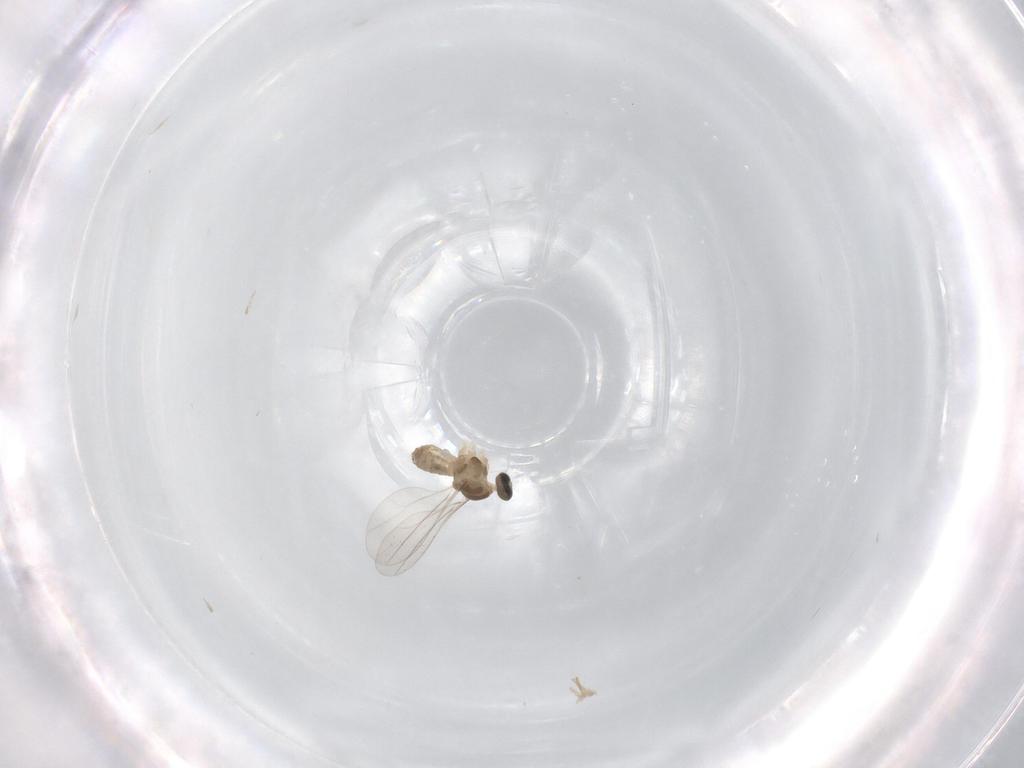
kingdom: Animalia
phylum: Arthropoda
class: Insecta
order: Diptera
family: Cecidomyiidae
